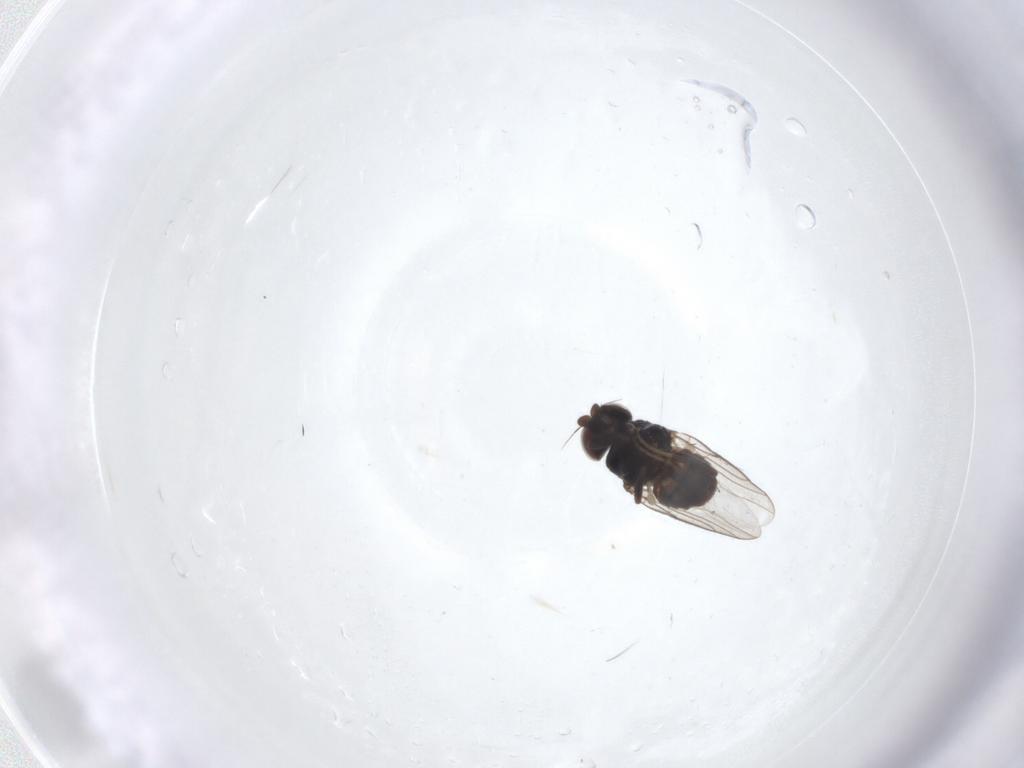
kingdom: Animalia
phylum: Arthropoda
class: Insecta
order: Diptera
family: Chloropidae
